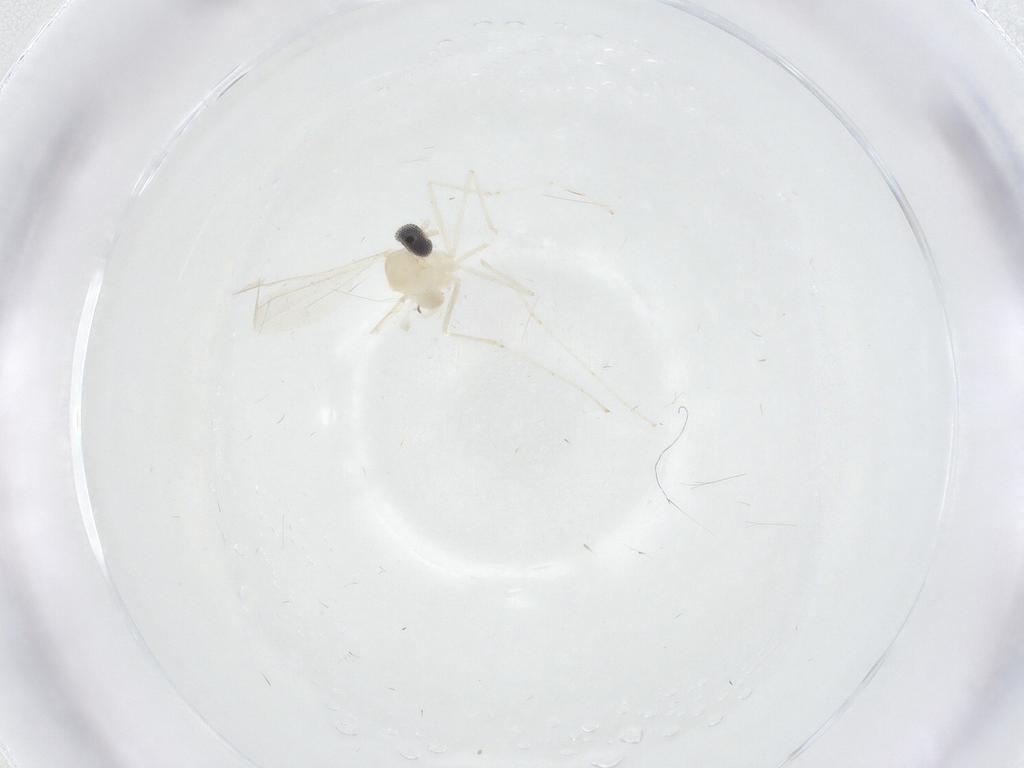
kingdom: Animalia
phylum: Arthropoda
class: Insecta
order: Diptera
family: Cecidomyiidae
